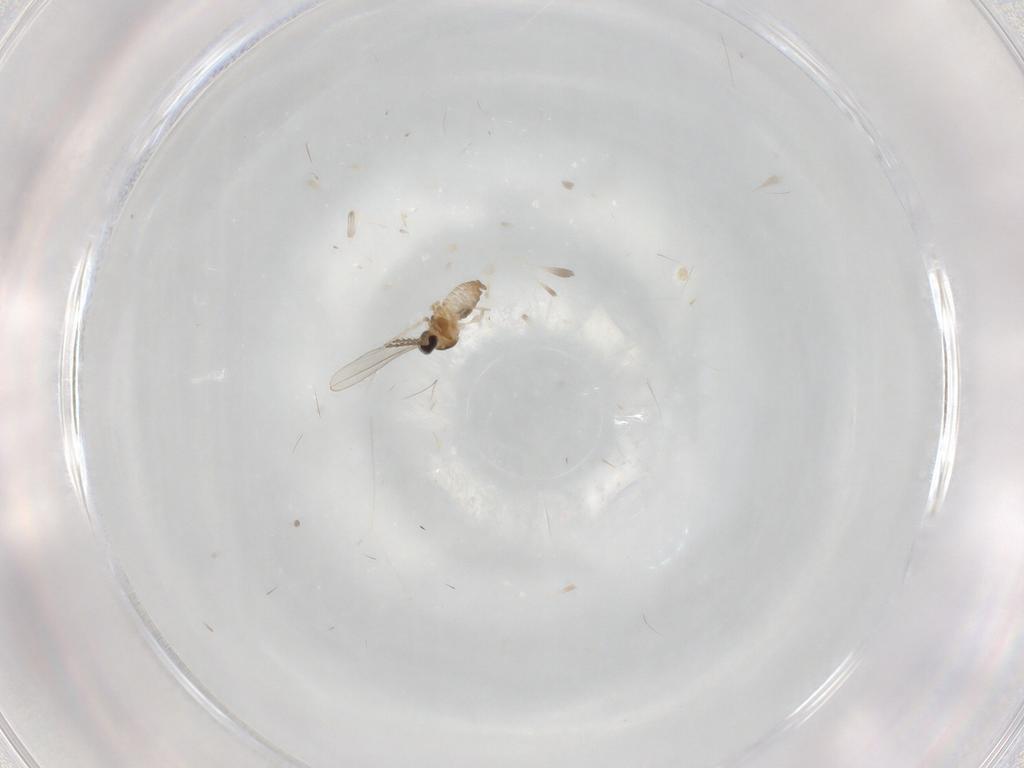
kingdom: Animalia
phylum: Arthropoda
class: Insecta
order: Diptera
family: Cecidomyiidae
